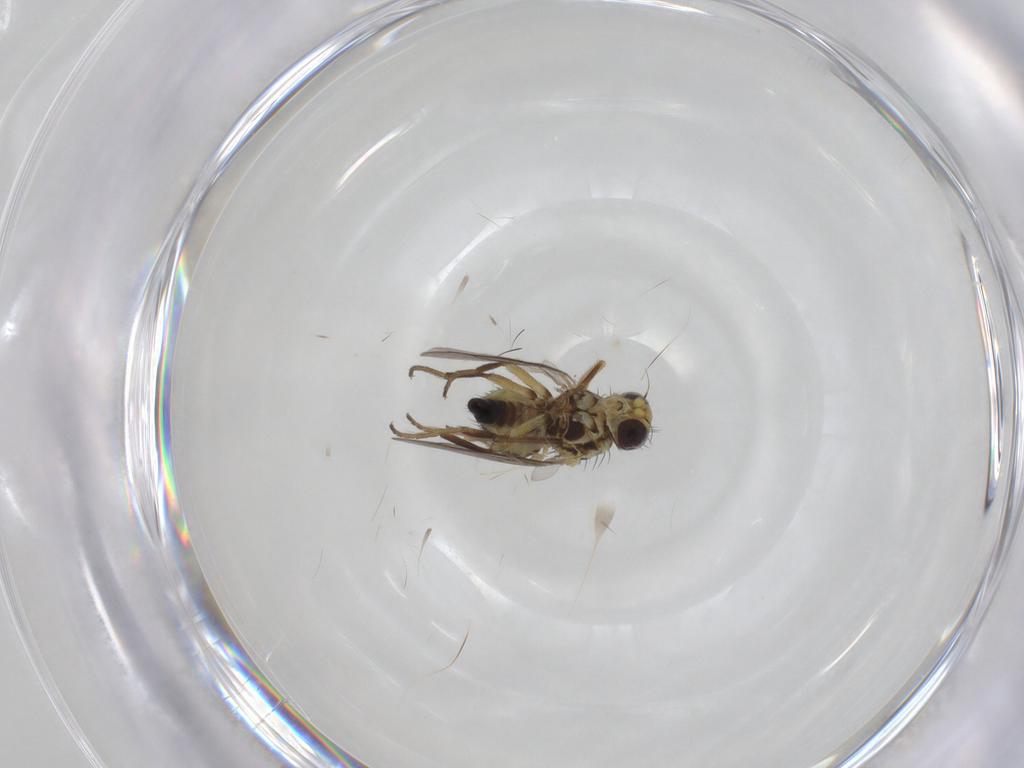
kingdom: Animalia
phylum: Arthropoda
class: Insecta
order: Diptera
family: Agromyzidae
